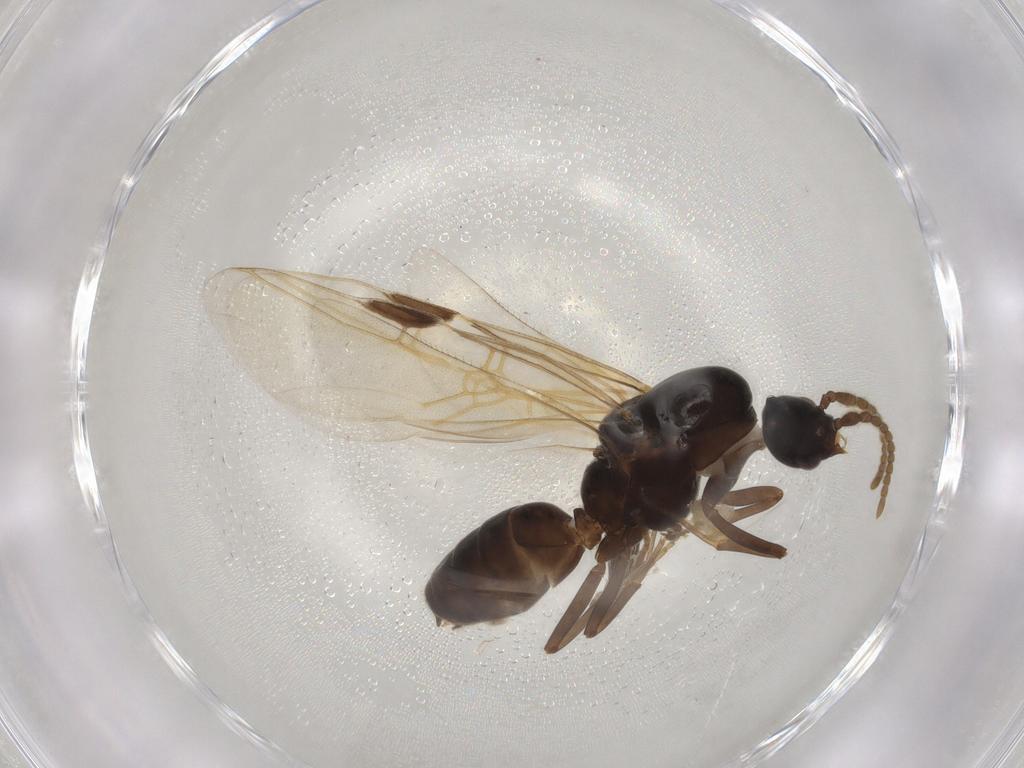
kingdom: Animalia
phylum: Arthropoda
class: Insecta
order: Hymenoptera
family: Formicidae
